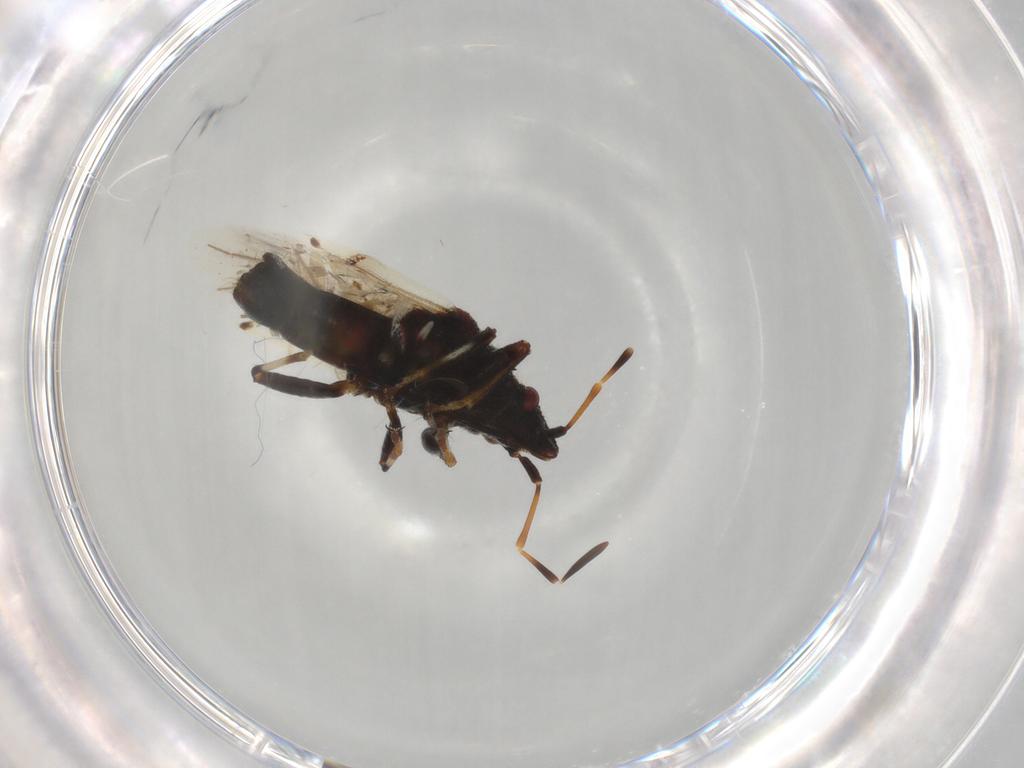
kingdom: Animalia
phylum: Arthropoda
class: Insecta
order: Hemiptera
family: Oxycarenidae
